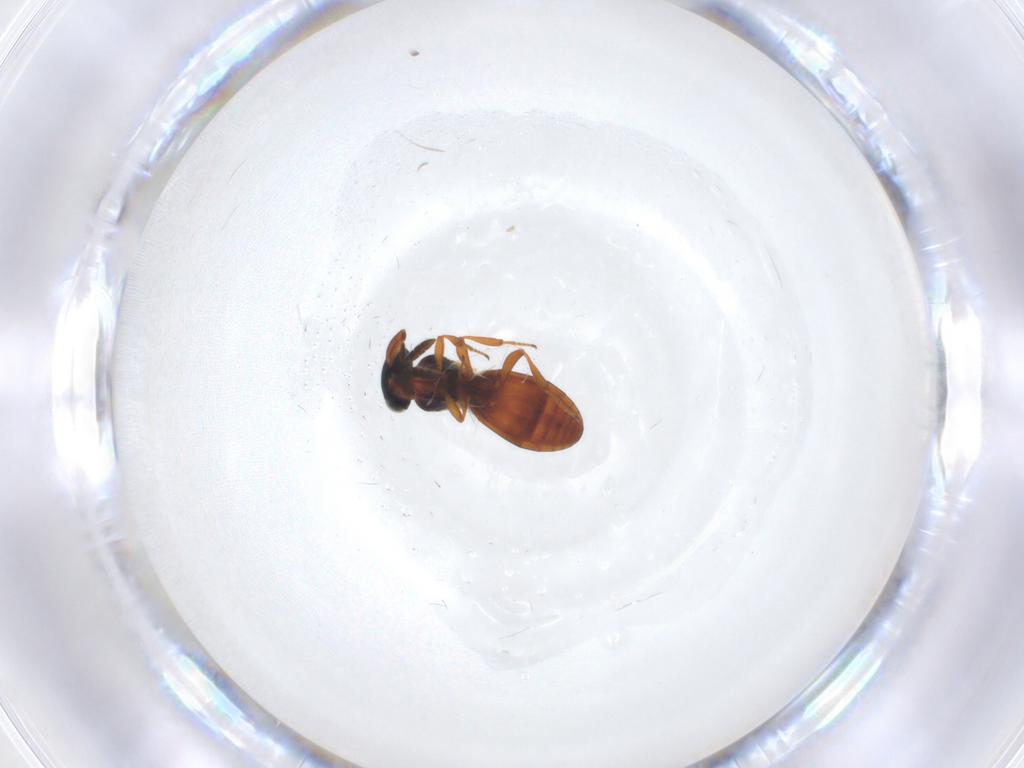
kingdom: Animalia
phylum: Arthropoda
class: Insecta
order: Hymenoptera
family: Platygastridae
